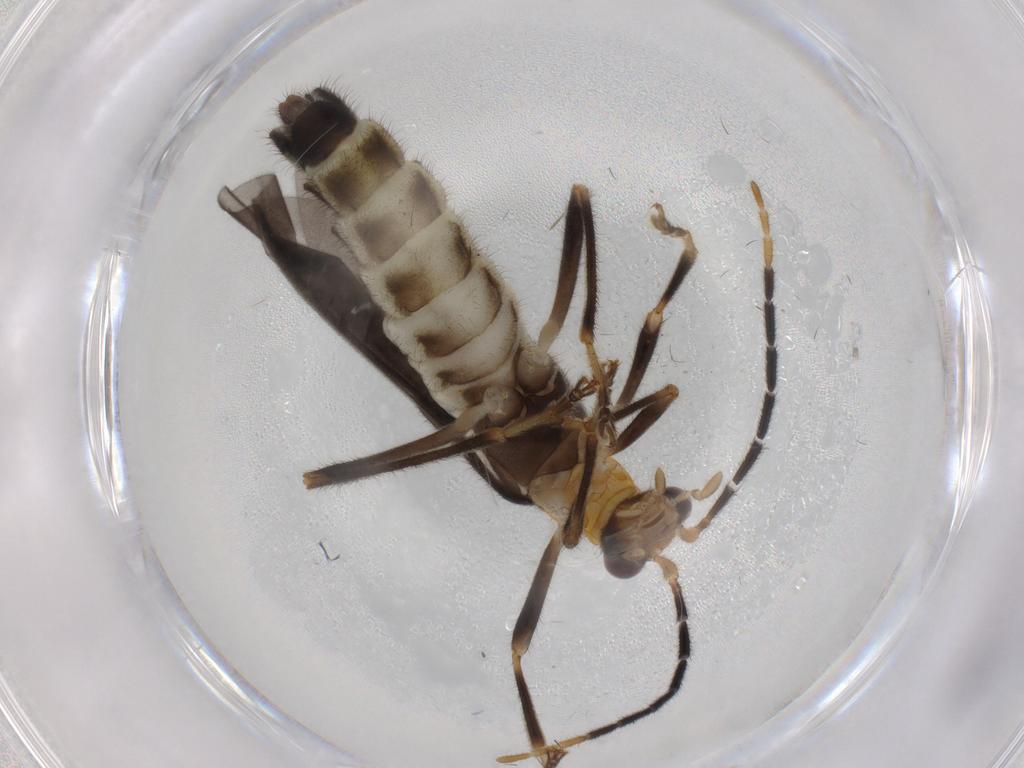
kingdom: Animalia
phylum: Arthropoda
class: Insecta
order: Coleoptera
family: Cantharidae
